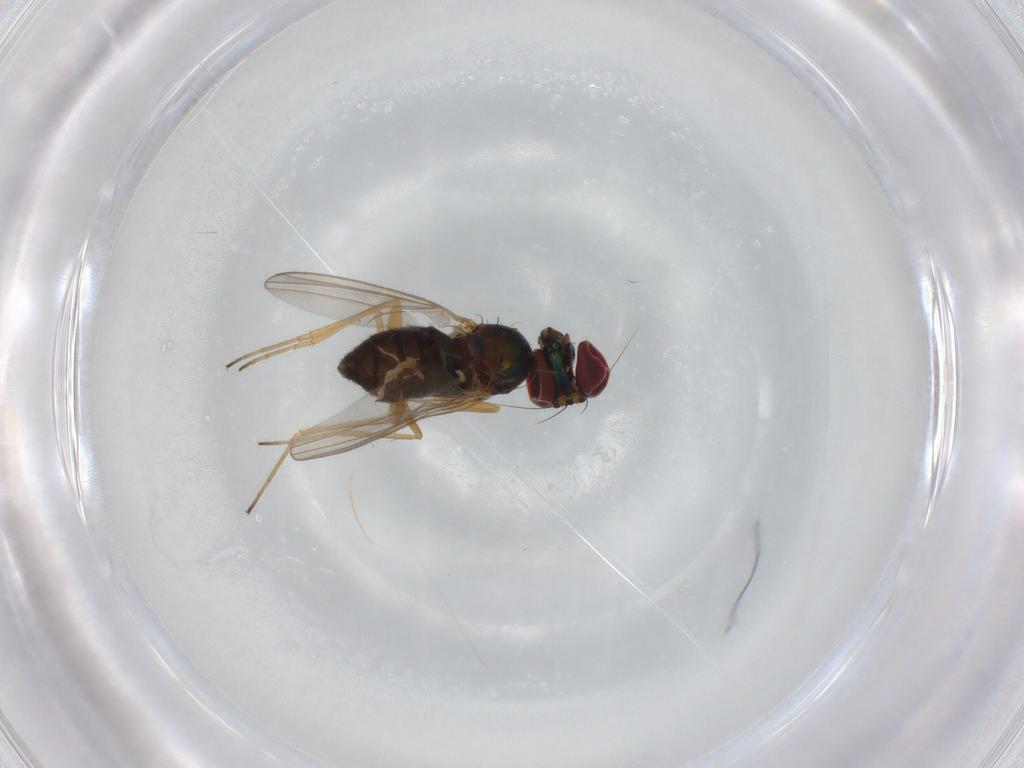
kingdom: Animalia
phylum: Arthropoda
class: Insecta
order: Diptera
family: Dolichopodidae
